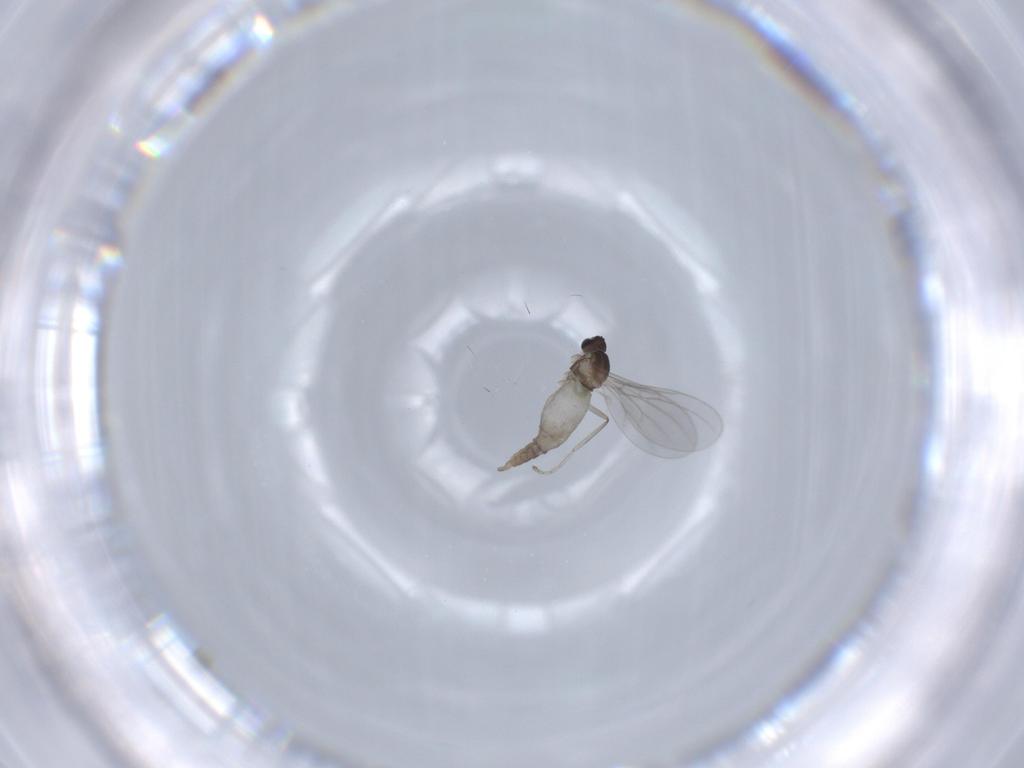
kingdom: Animalia
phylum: Arthropoda
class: Insecta
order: Diptera
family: Cecidomyiidae
